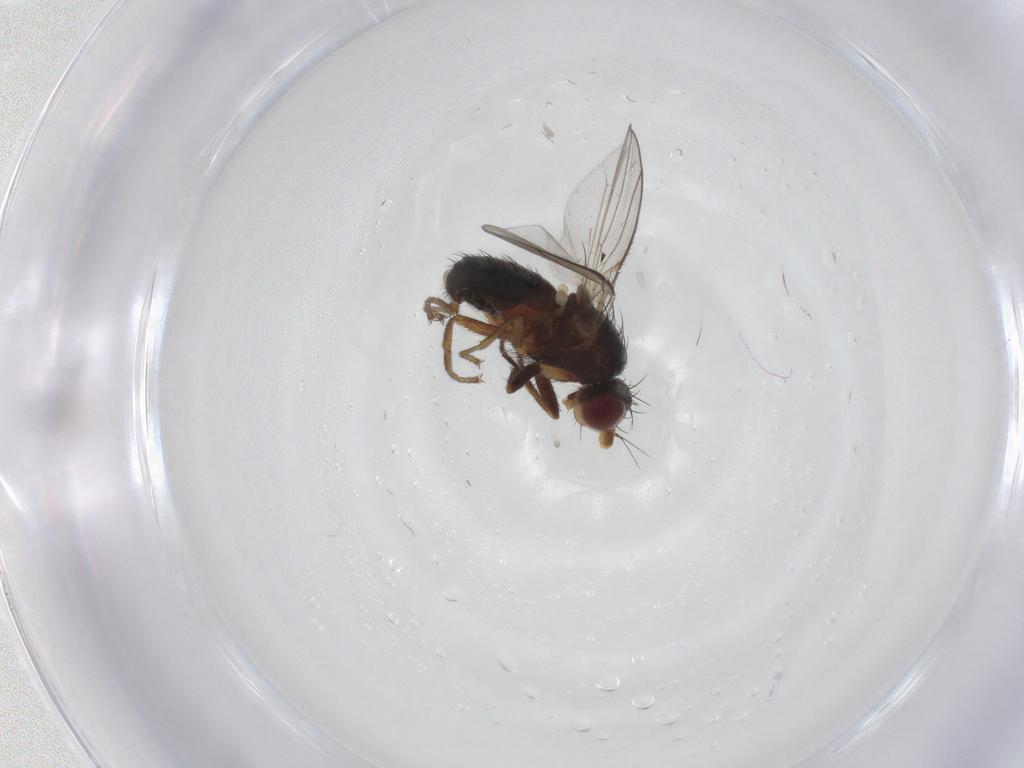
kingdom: Animalia
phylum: Arthropoda
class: Insecta
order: Diptera
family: Heleomyzidae
